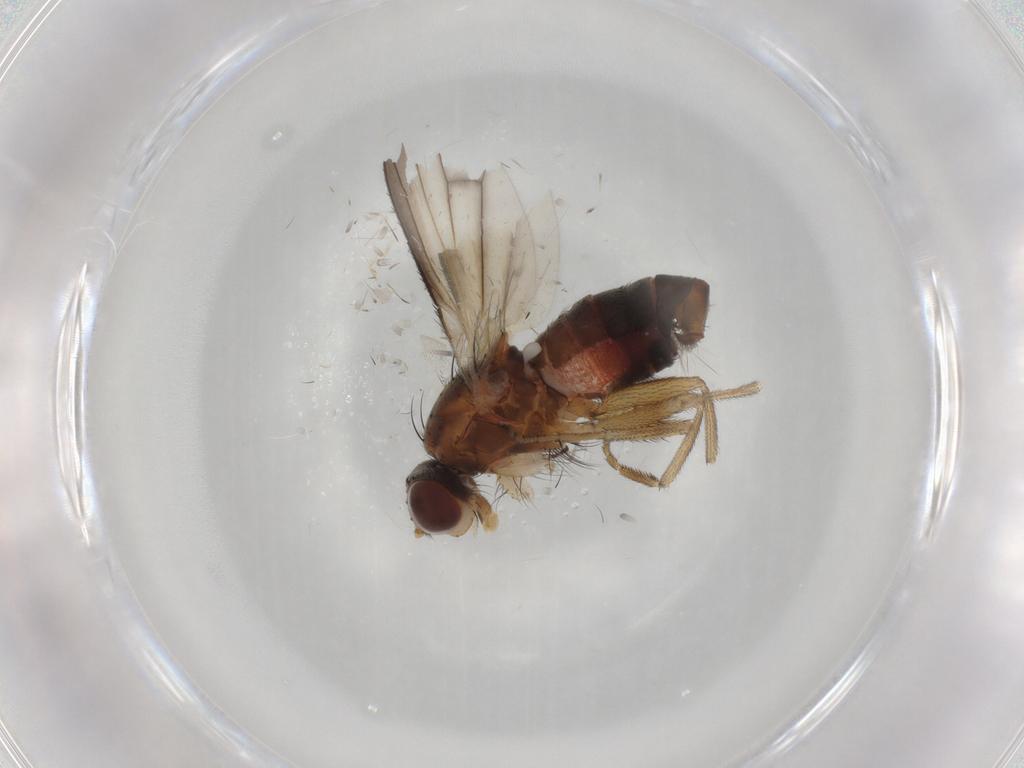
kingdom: Animalia
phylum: Arthropoda
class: Insecta
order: Diptera
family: Heleomyzidae
